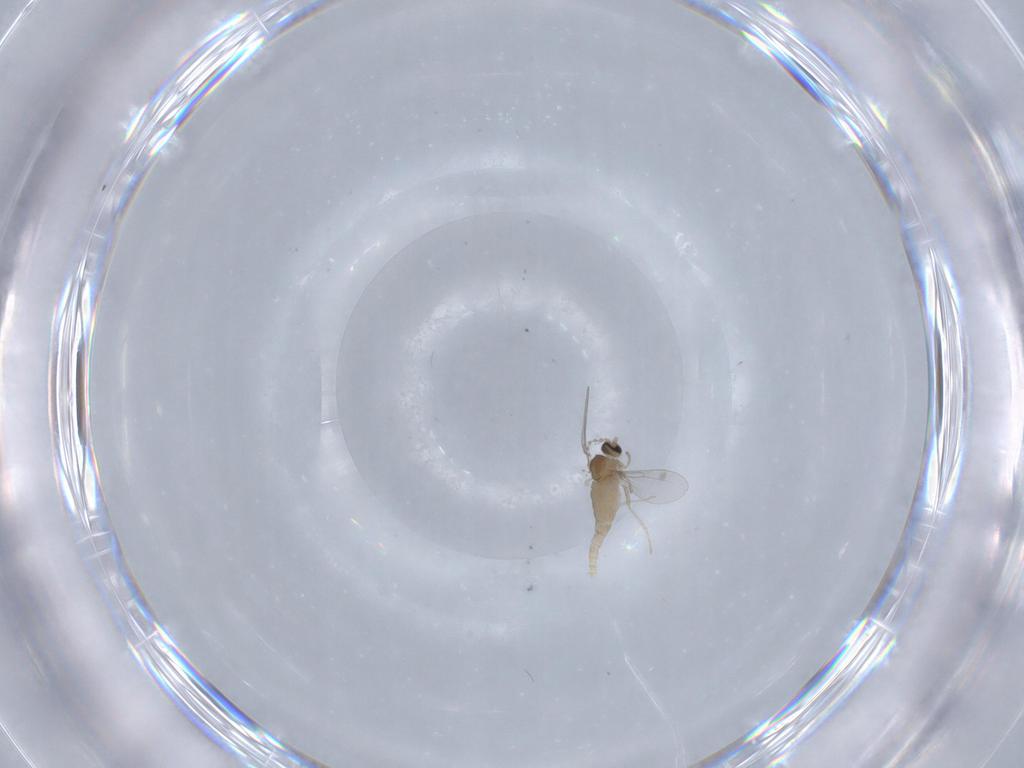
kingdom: Animalia
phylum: Arthropoda
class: Insecta
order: Diptera
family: Cecidomyiidae
